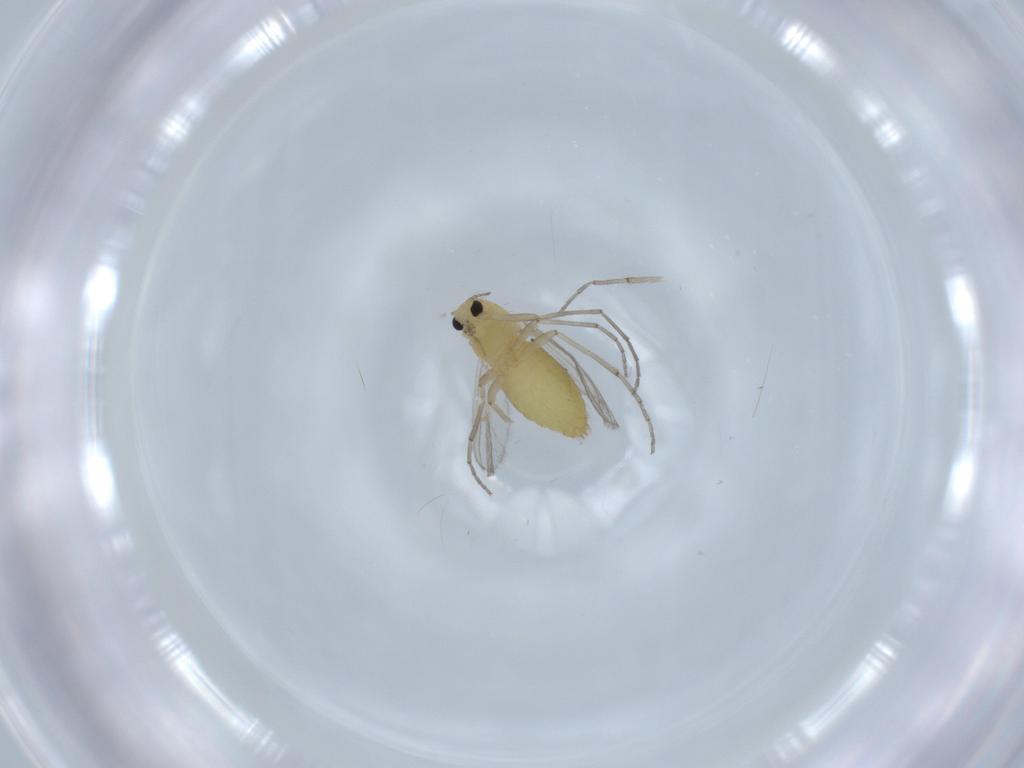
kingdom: Animalia
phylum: Arthropoda
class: Insecta
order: Diptera
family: Chironomidae
